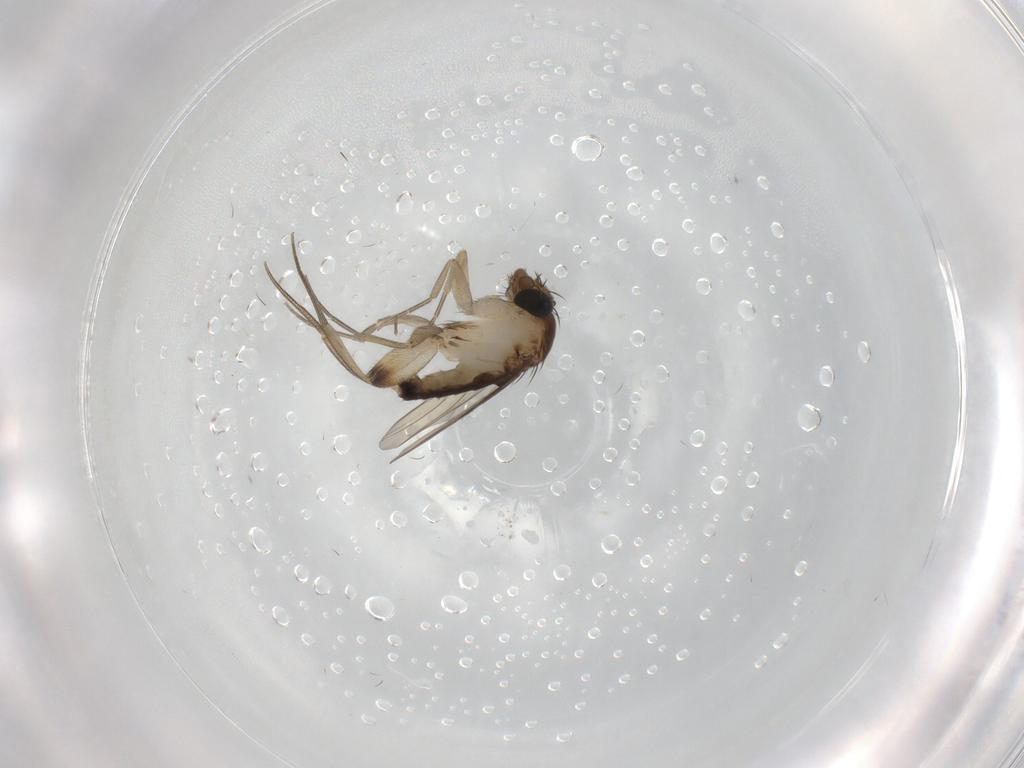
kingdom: Animalia
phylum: Arthropoda
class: Insecta
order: Diptera
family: Phoridae
